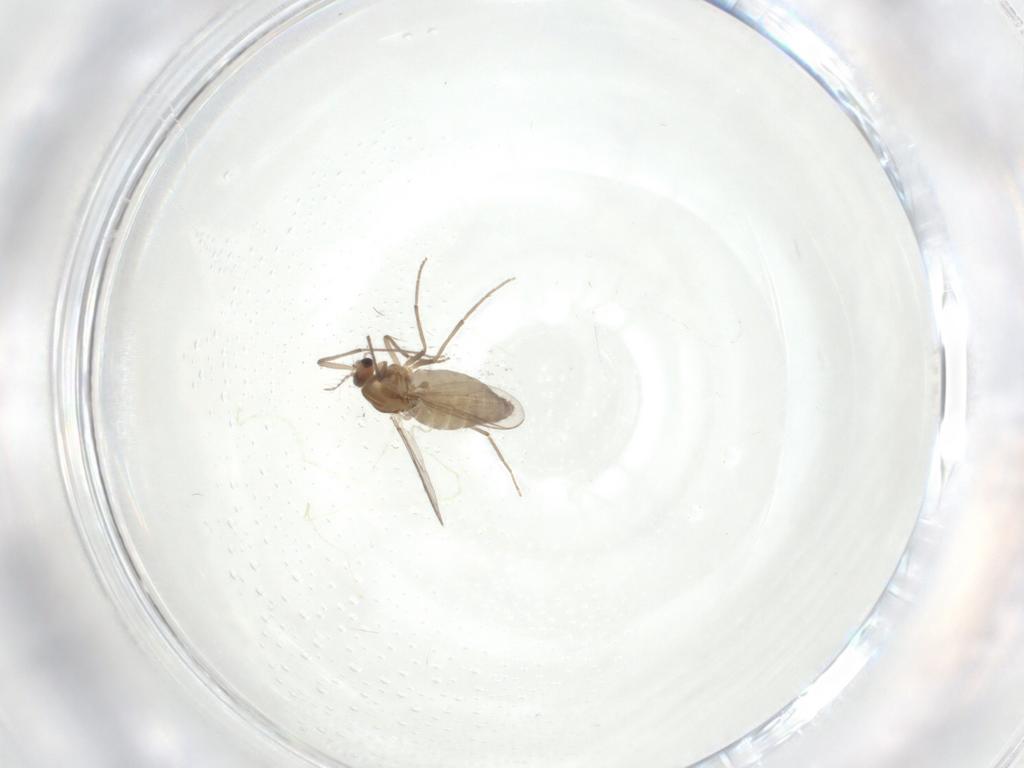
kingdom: Animalia
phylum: Arthropoda
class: Insecta
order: Diptera
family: Chironomidae
